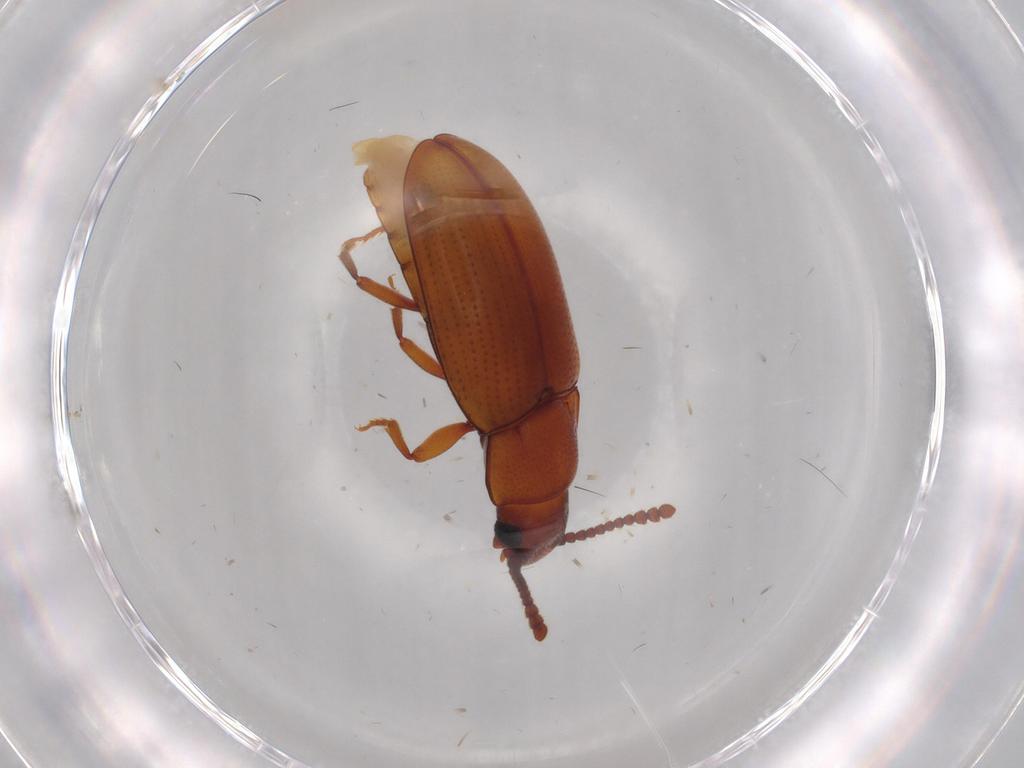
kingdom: Animalia
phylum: Arthropoda
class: Insecta
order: Coleoptera
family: Erotylidae
